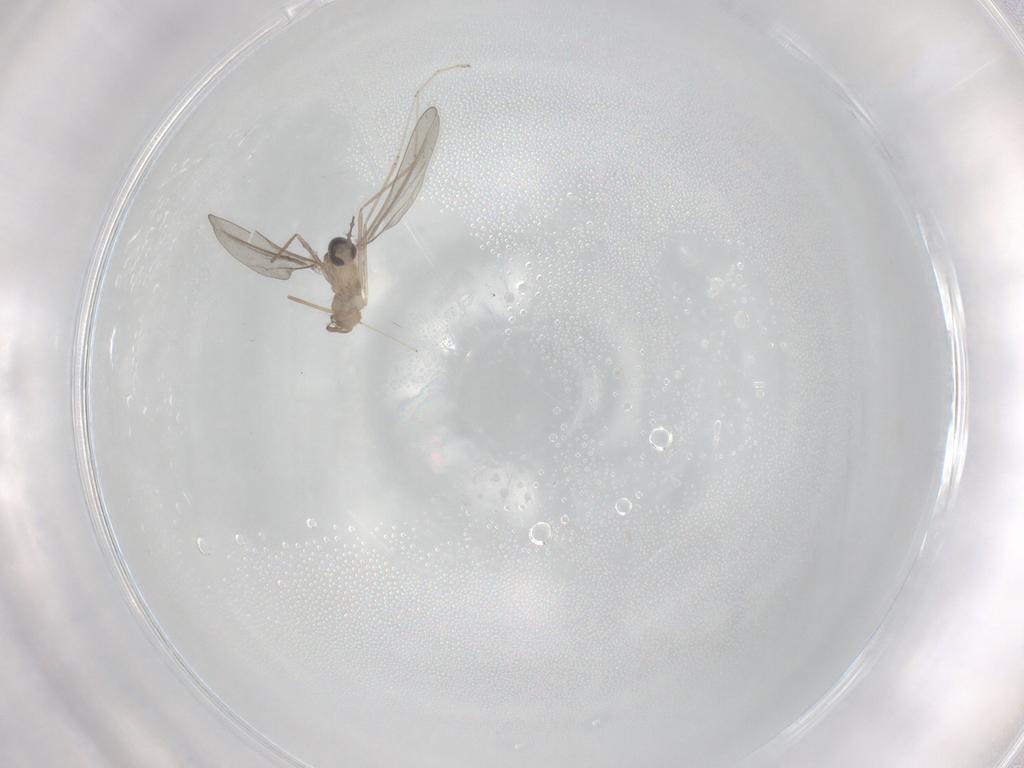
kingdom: Animalia
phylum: Arthropoda
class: Insecta
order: Diptera
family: Cecidomyiidae
